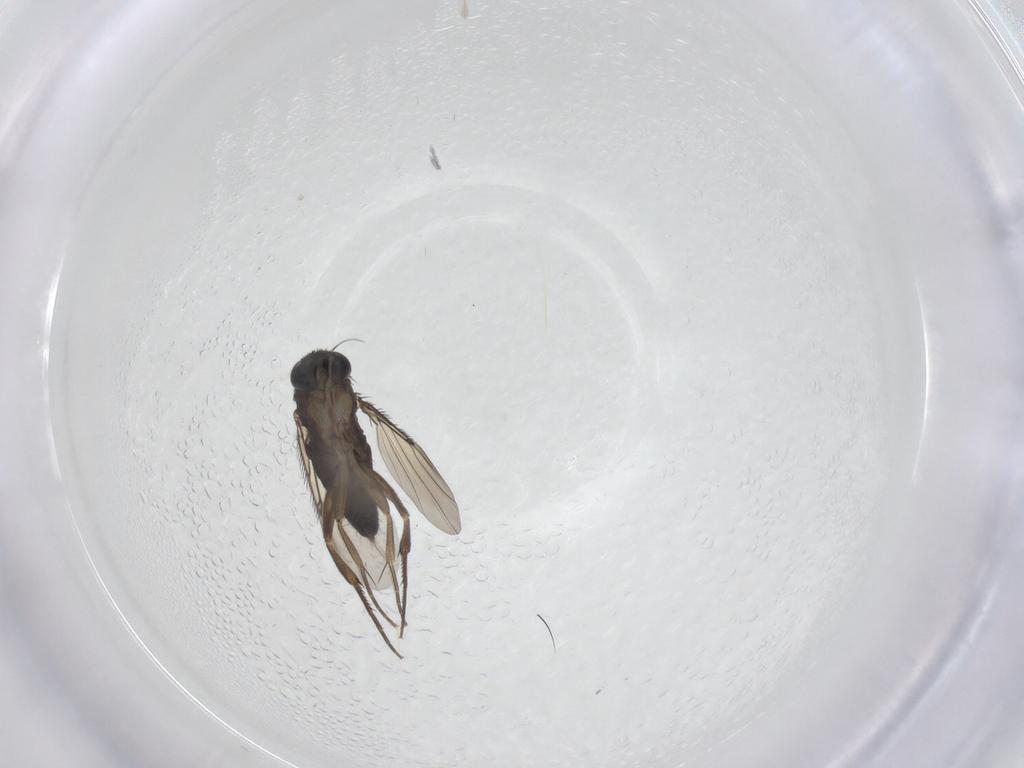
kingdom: Animalia
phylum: Arthropoda
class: Insecta
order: Diptera
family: Phoridae
